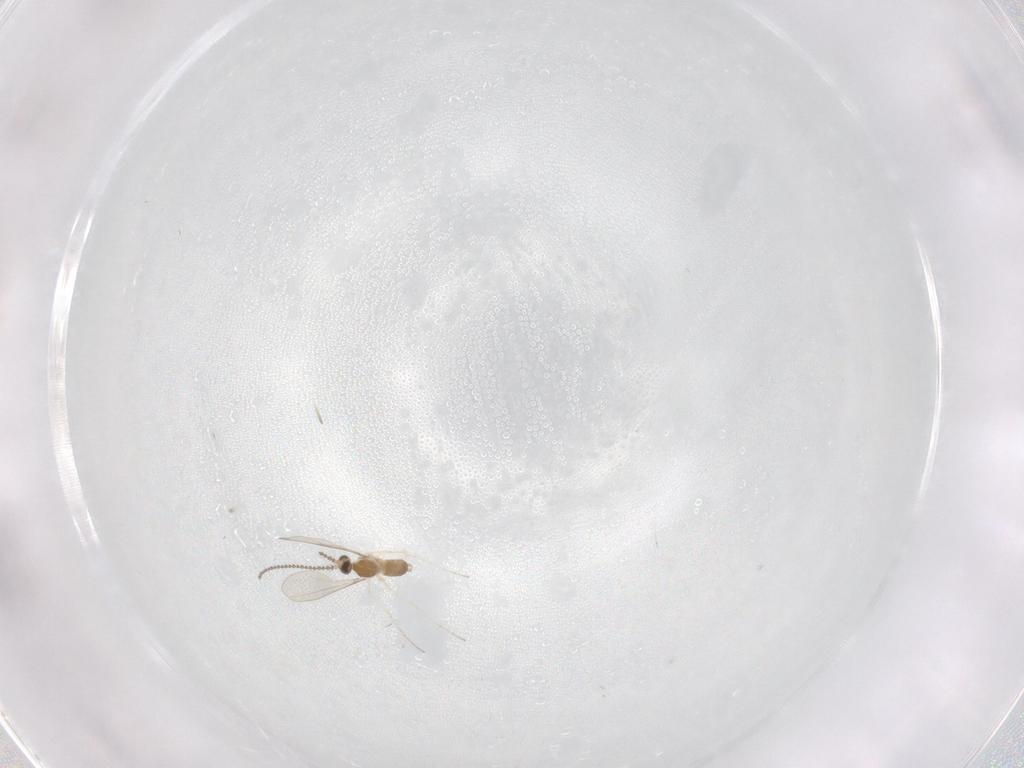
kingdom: Animalia
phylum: Arthropoda
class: Insecta
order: Diptera
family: Cecidomyiidae
